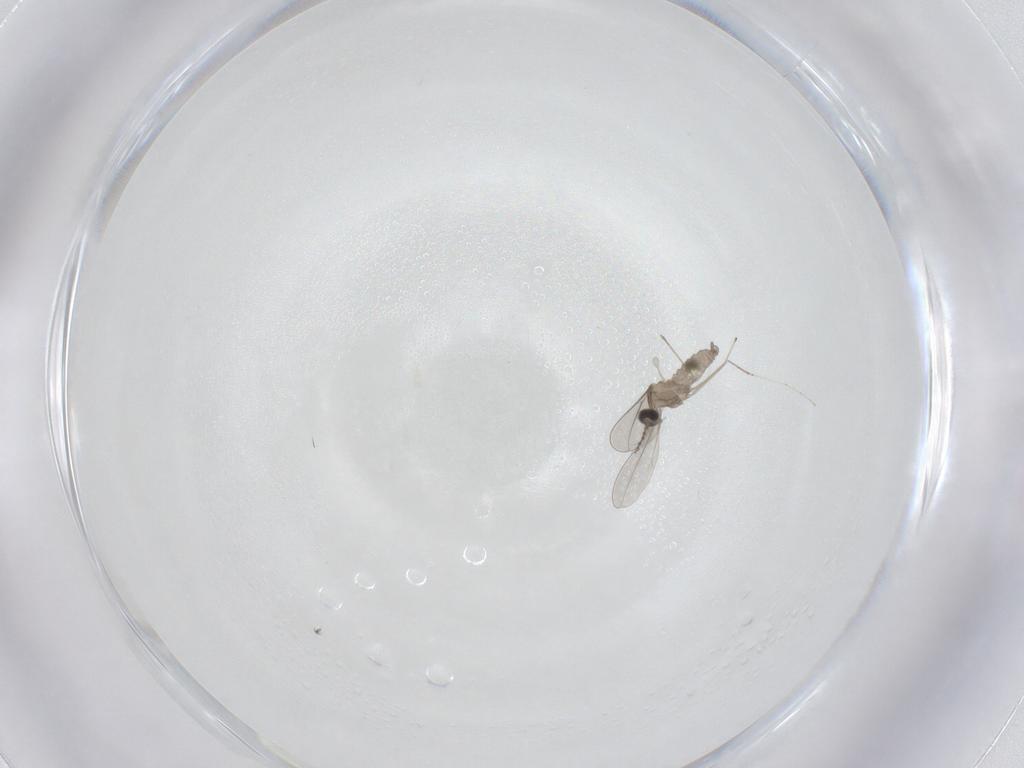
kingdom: Animalia
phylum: Arthropoda
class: Insecta
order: Diptera
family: Cecidomyiidae
